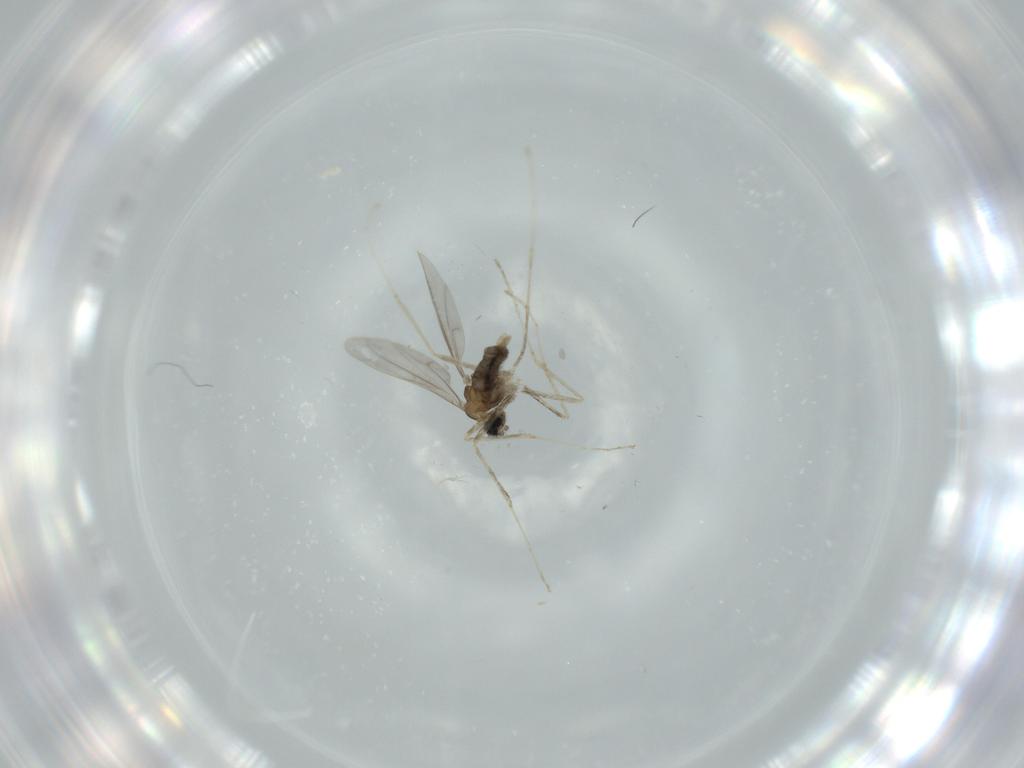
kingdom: Animalia
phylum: Arthropoda
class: Insecta
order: Diptera
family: Cecidomyiidae
